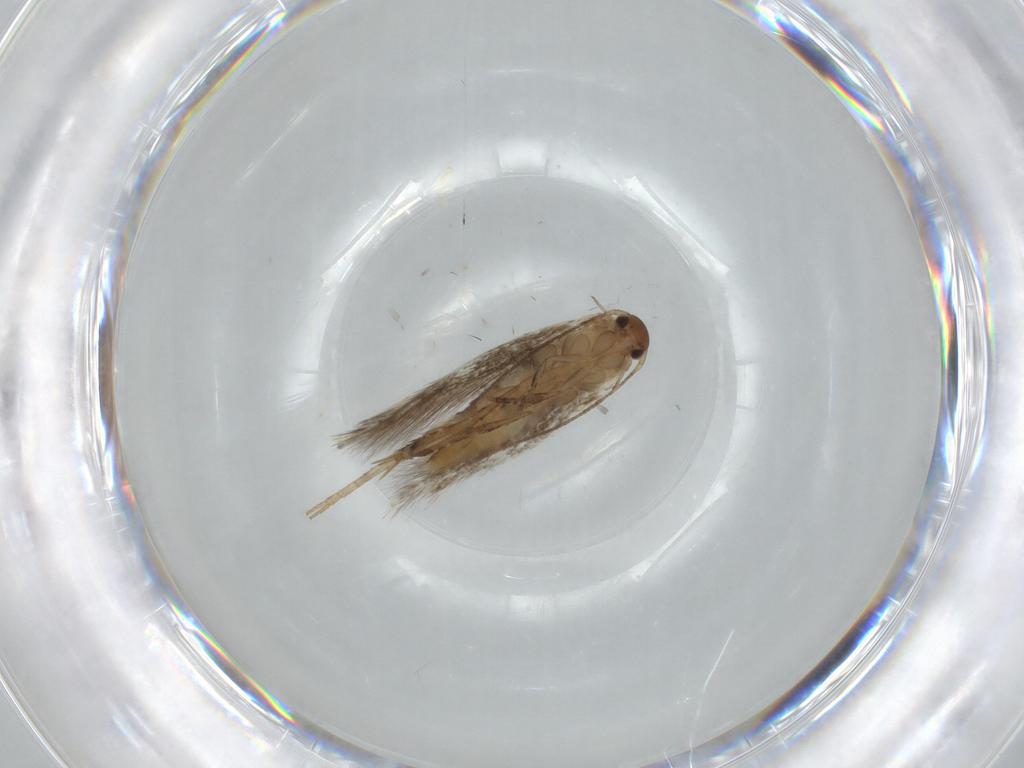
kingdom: Animalia
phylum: Arthropoda
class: Insecta
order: Lepidoptera
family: Elachistidae
